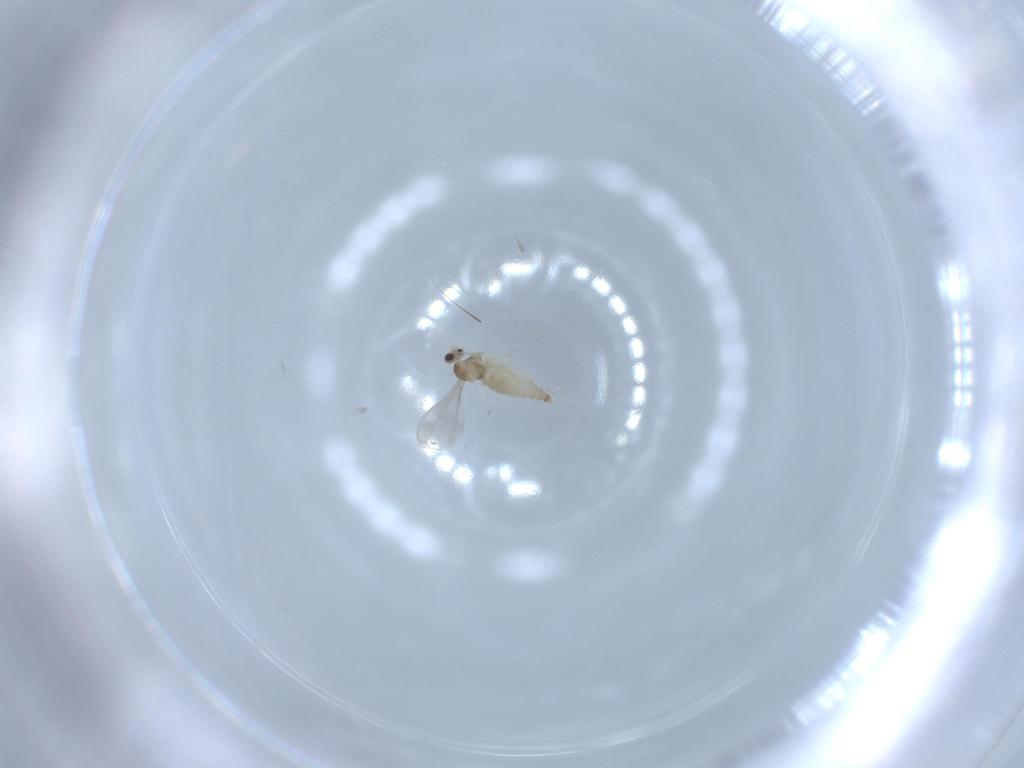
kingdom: Animalia
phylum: Arthropoda
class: Insecta
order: Diptera
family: Cecidomyiidae
